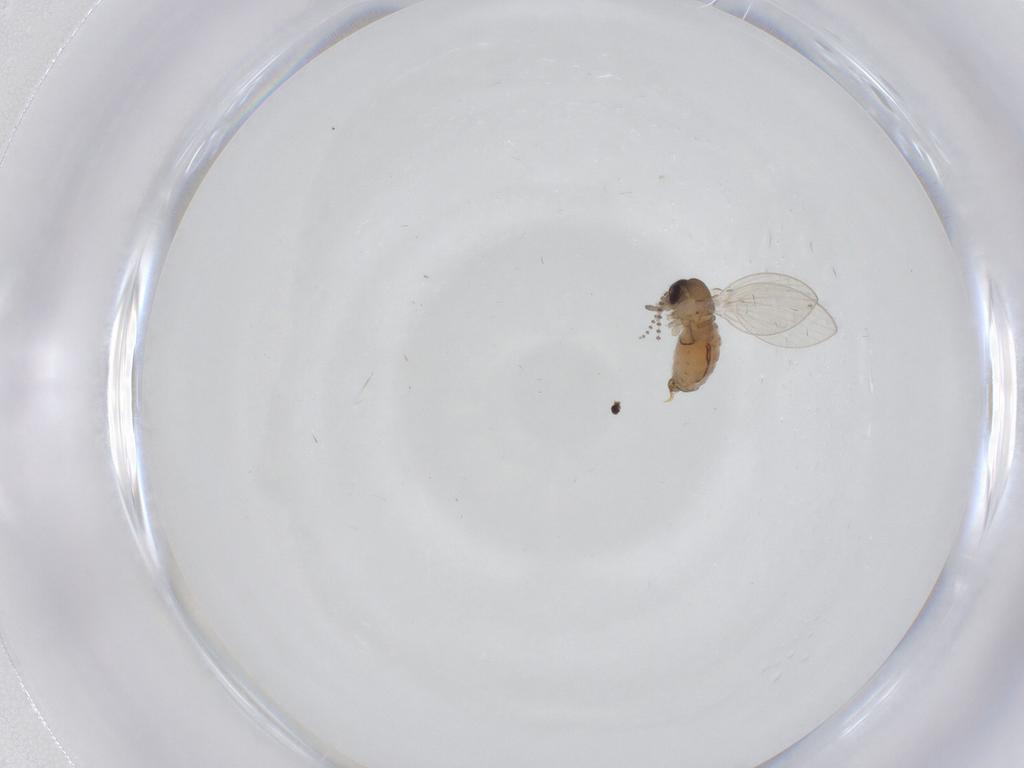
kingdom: Animalia
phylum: Arthropoda
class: Insecta
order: Diptera
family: Psychodidae
